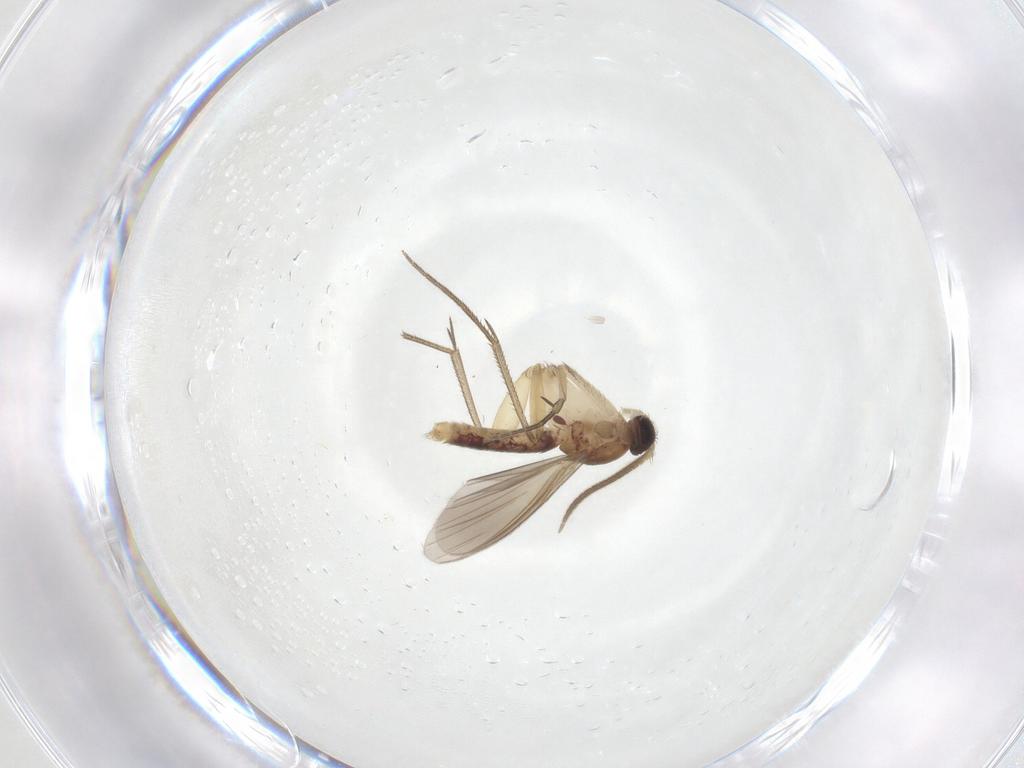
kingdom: Animalia
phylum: Arthropoda
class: Insecta
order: Diptera
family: Mycetophilidae
